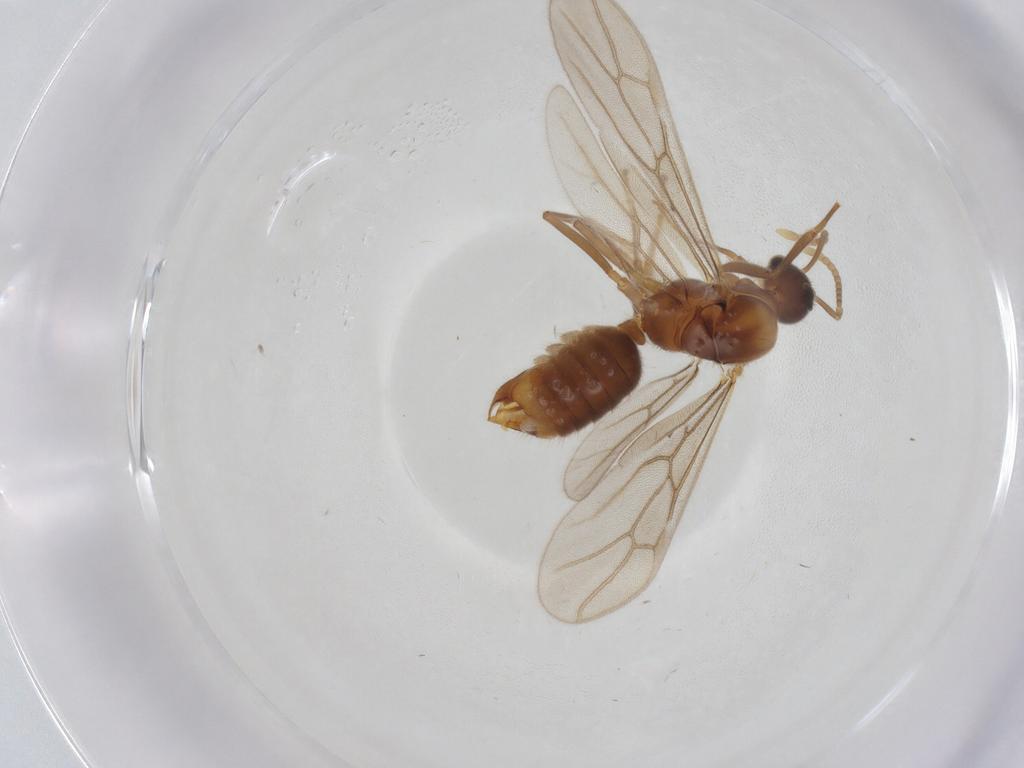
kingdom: Animalia
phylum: Arthropoda
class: Insecta
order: Hymenoptera
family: Formicidae
